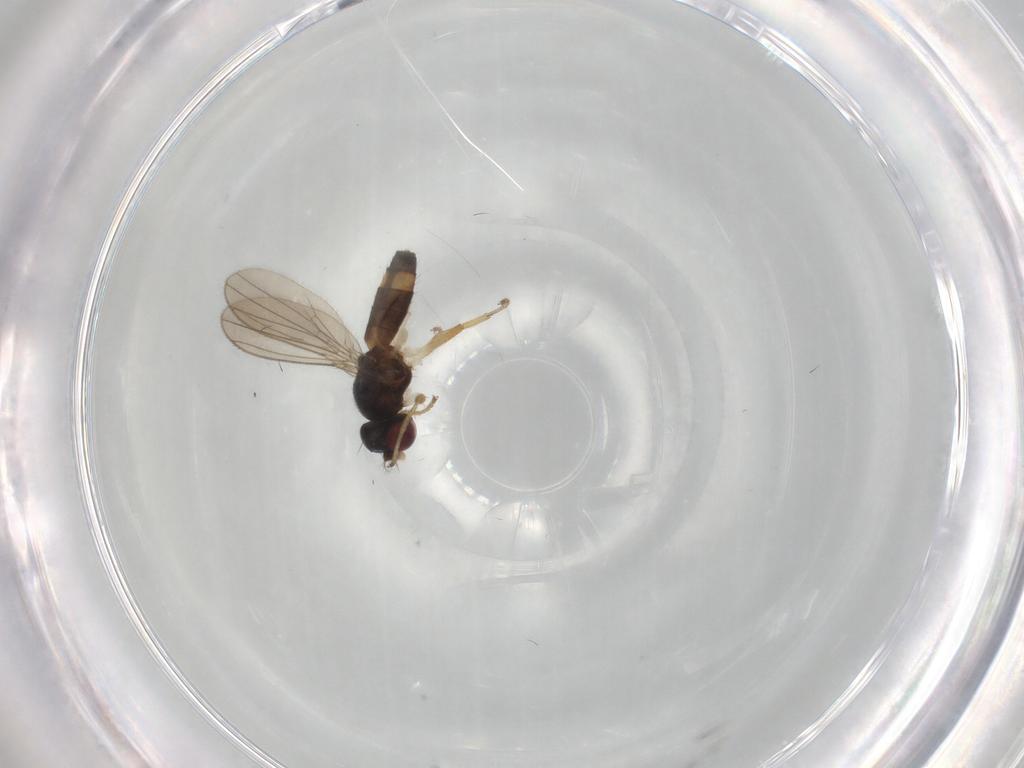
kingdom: Animalia
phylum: Arthropoda
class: Insecta
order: Diptera
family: Anthomyzidae
